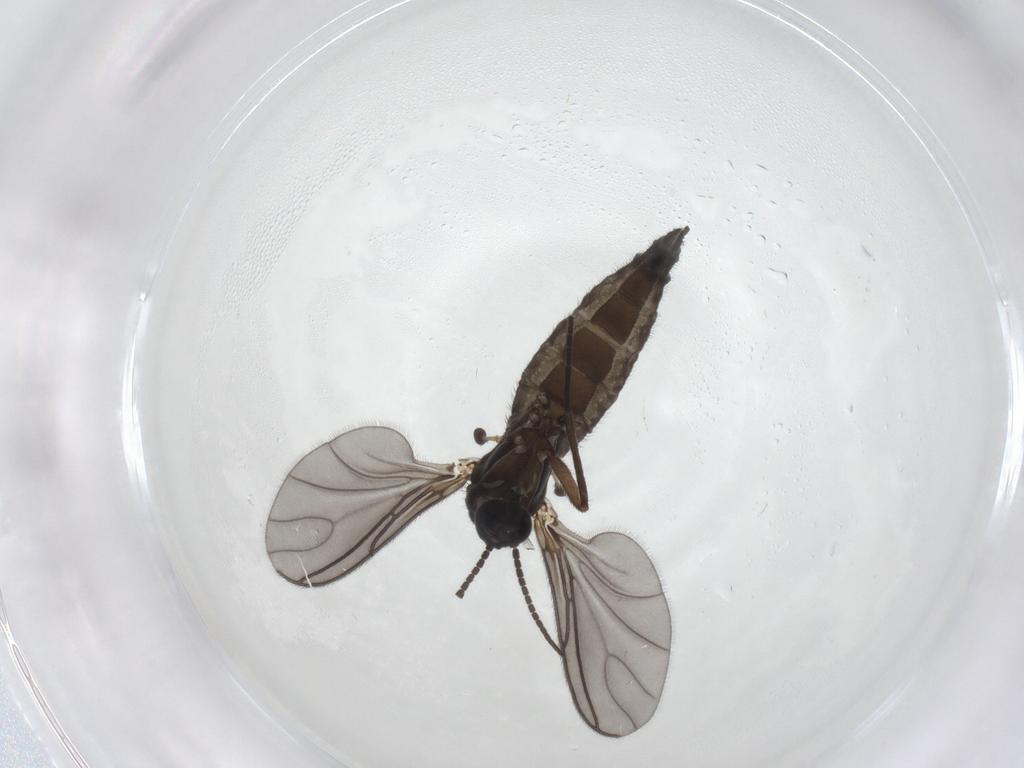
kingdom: Animalia
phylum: Arthropoda
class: Insecta
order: Diptera
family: Sciaridae
